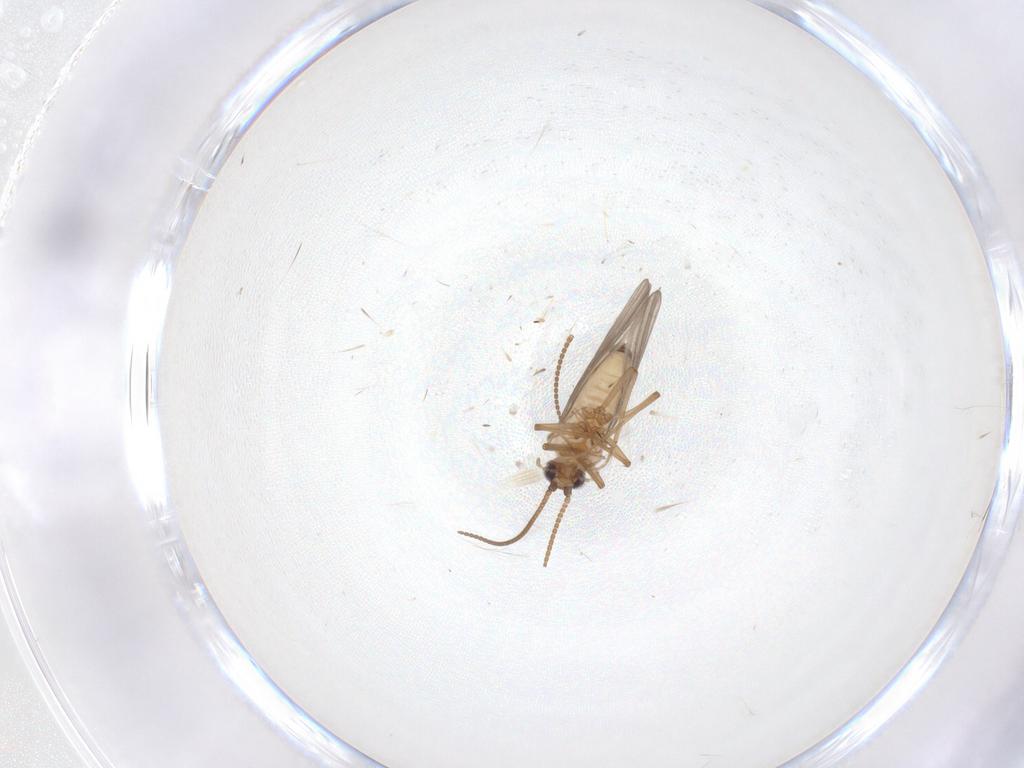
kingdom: Animalia
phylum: Arthropoda
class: Insecta
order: Neuroptera
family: Coniopterygidae
